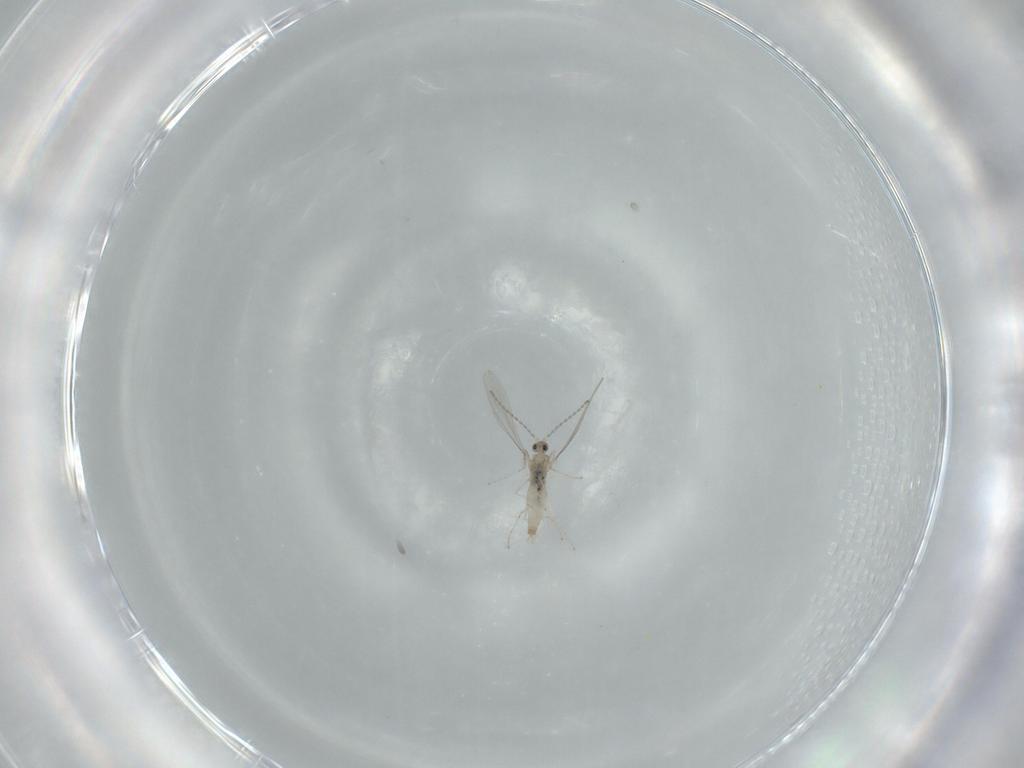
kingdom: Animalia
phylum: Arthropoda
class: Insecta
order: Diptera
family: Cecidomyiidae
